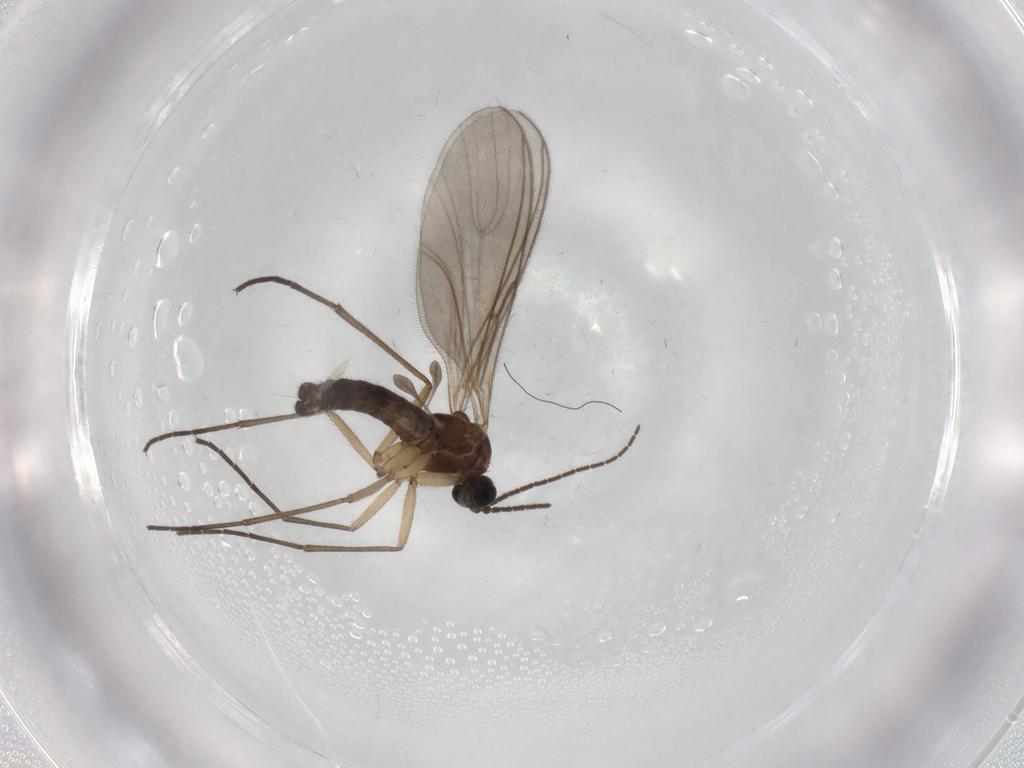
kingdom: Animalia
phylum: Arthropoda
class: Insecta
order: Diptera
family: Sciaridae
